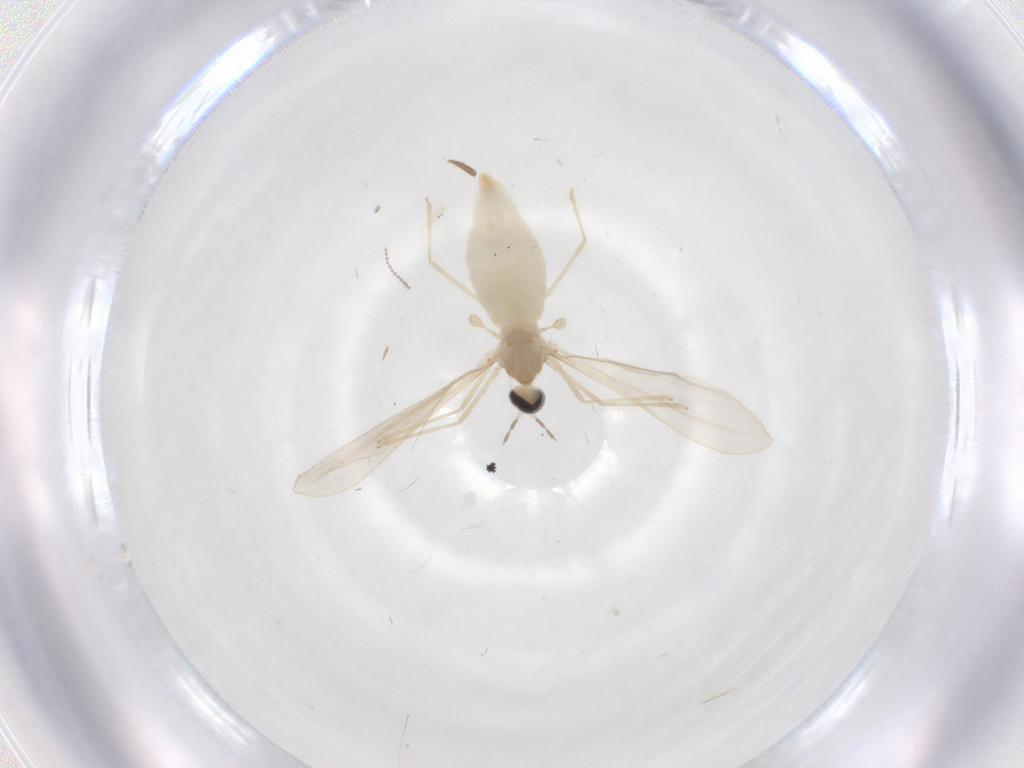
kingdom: Animalia
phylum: Arthropoda
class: Insecta
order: Diptera
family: Cecidomyiidae
